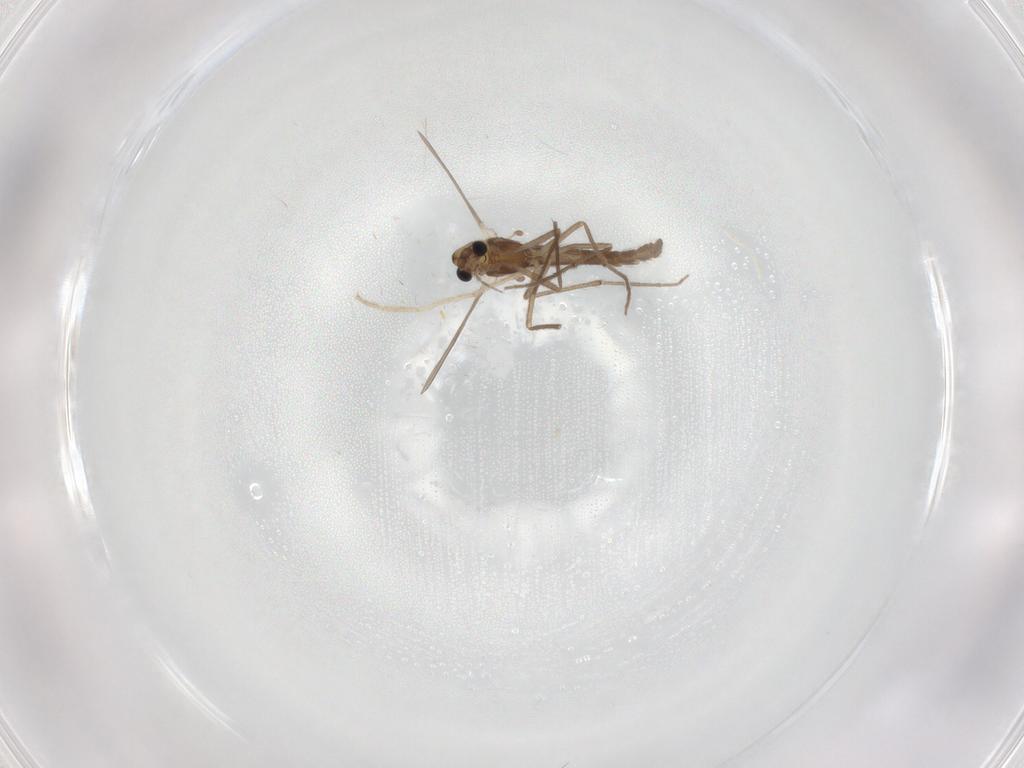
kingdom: Animalia
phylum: Arthropoda
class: Insecta
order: Diptera
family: Chironomidae
